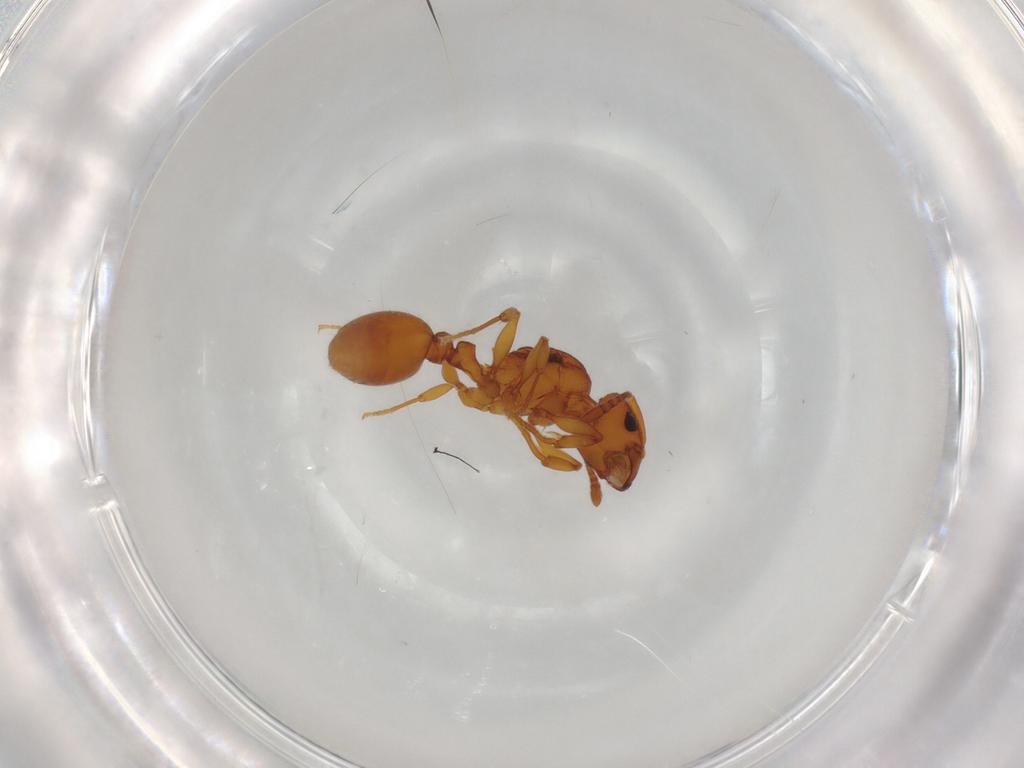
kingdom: Animalia
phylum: Arthropoda
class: Insecta
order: Hymenoptera
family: Formicidae
